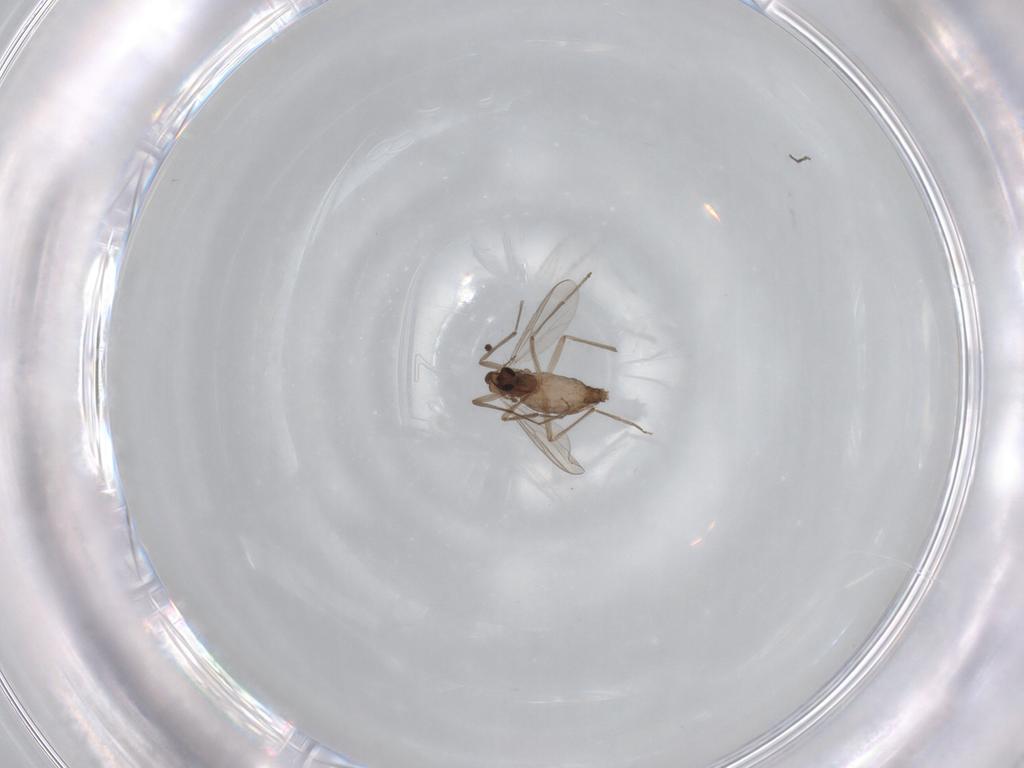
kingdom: Animalia
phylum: Arthropoda
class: Insecta
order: Diptera
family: Chironomidae
